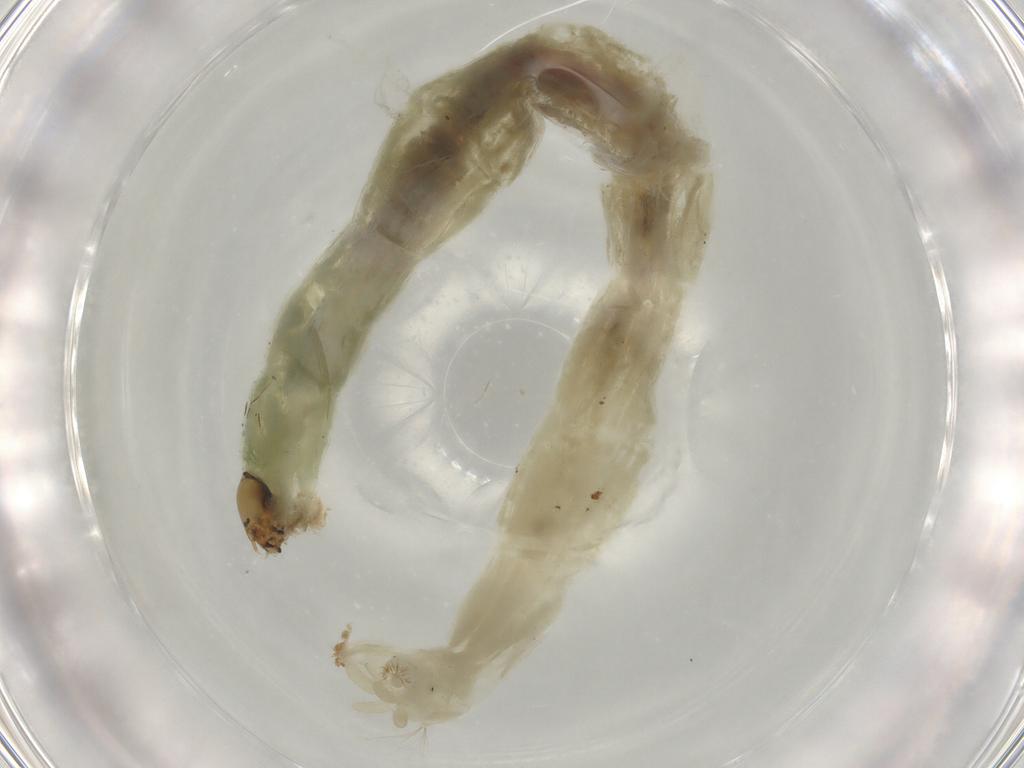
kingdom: Animalia
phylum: Arthropoda
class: Insecta
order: Diptera
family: Chironomidae
